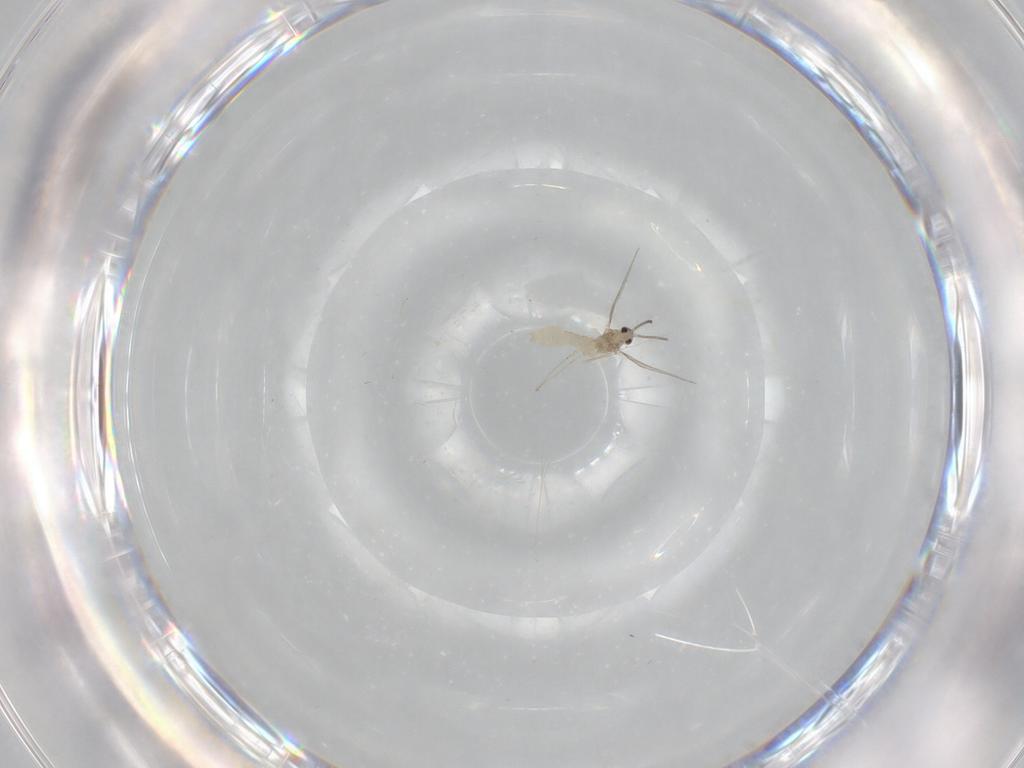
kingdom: Animalia
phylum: Arthropoda
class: Insecta
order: Diptera
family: Cecidomyiidae
